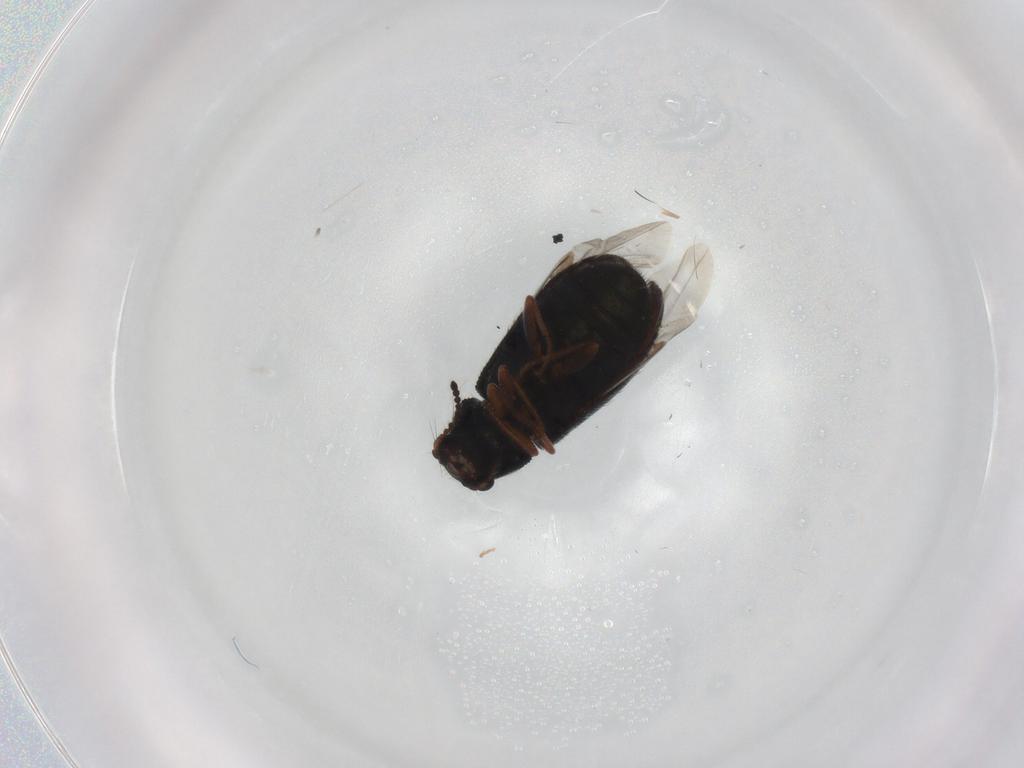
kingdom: Animalia
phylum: Arthropoda
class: Insecta
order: Coleoptera
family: Melyridae
